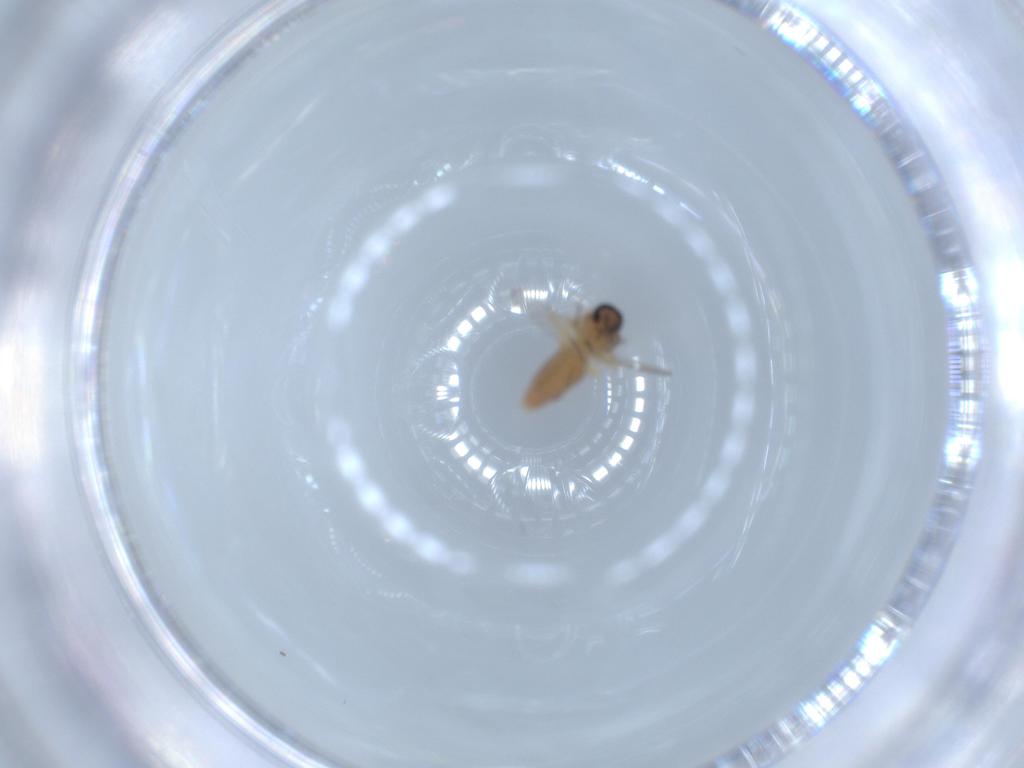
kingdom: Animalia
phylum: Arthropoda
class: Insecta
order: Diptera
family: Ceratopogonidae
